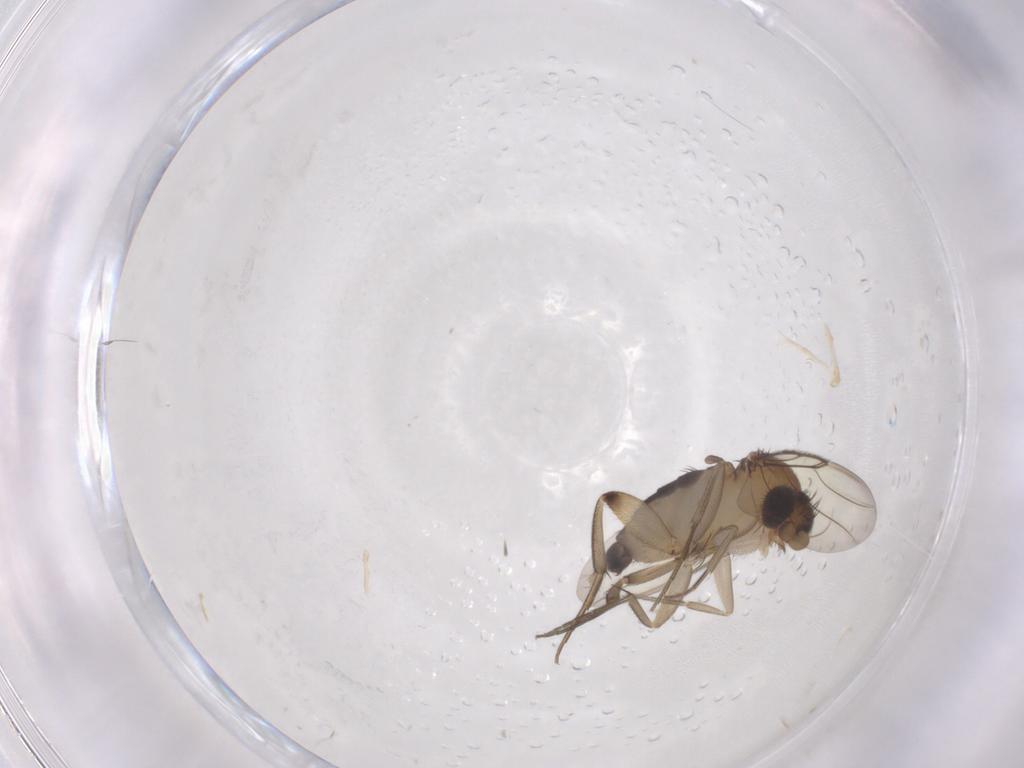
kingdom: Animalia
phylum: Arthropoda
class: Insecta
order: Diptera
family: Phoridae
